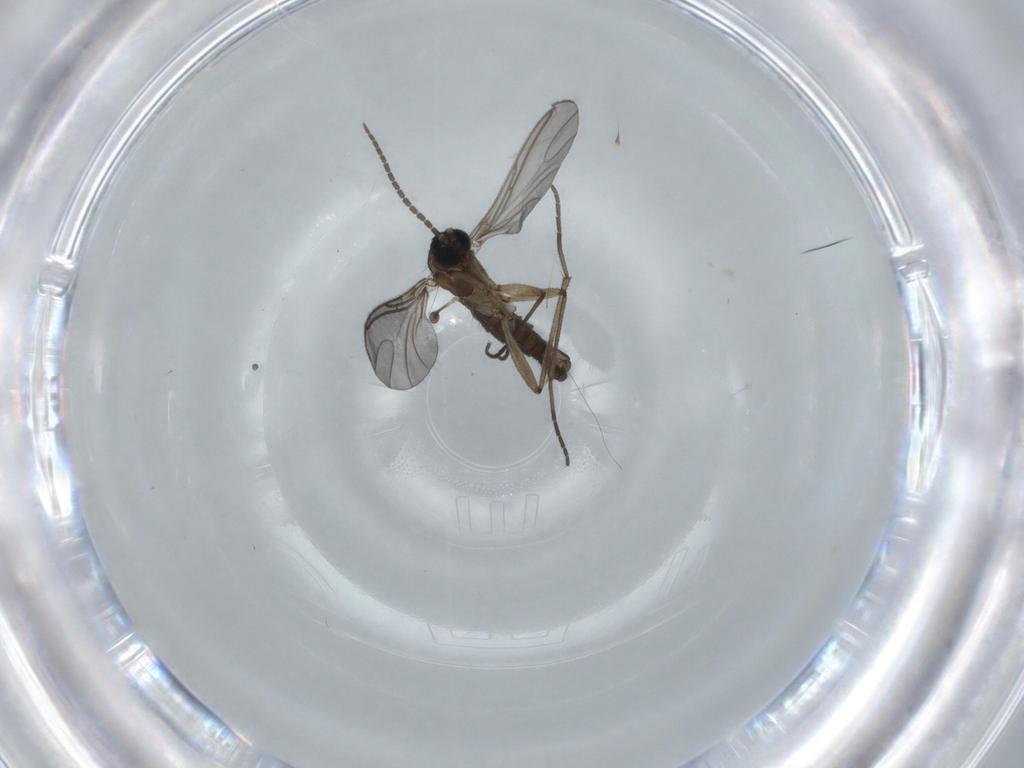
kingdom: Animalia
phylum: Arthropoda
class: Insecta
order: Diptera
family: Sciaridae
